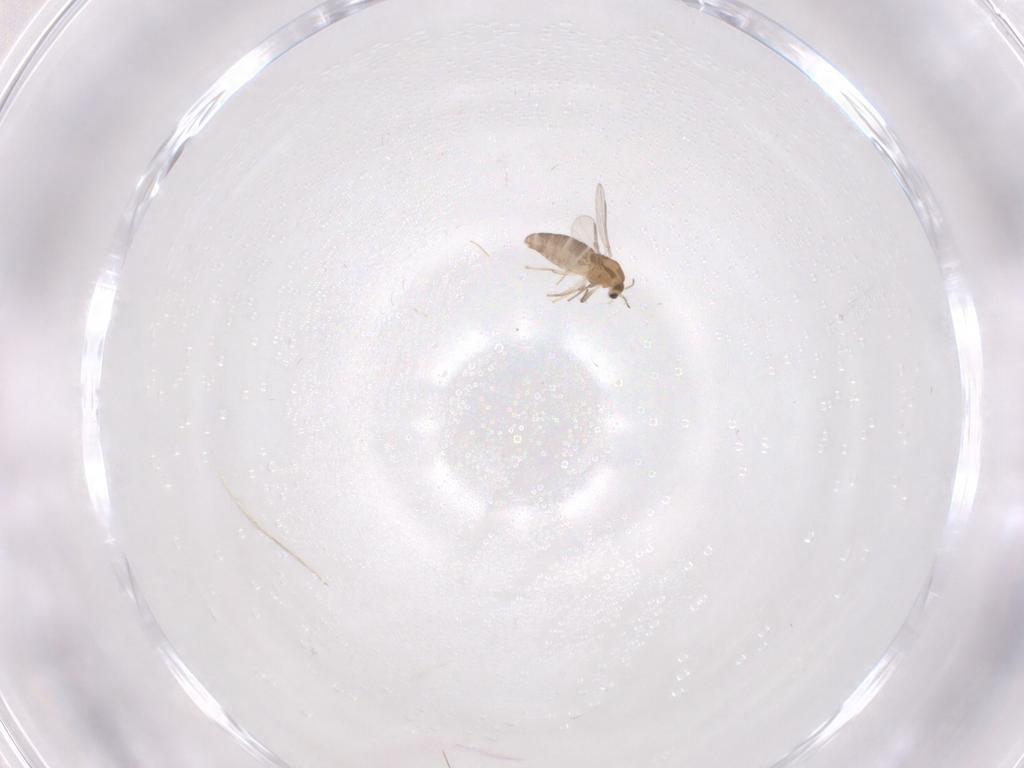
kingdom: Animalia
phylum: Arthropoda
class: Insecta
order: Diptera
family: Chironomidae
